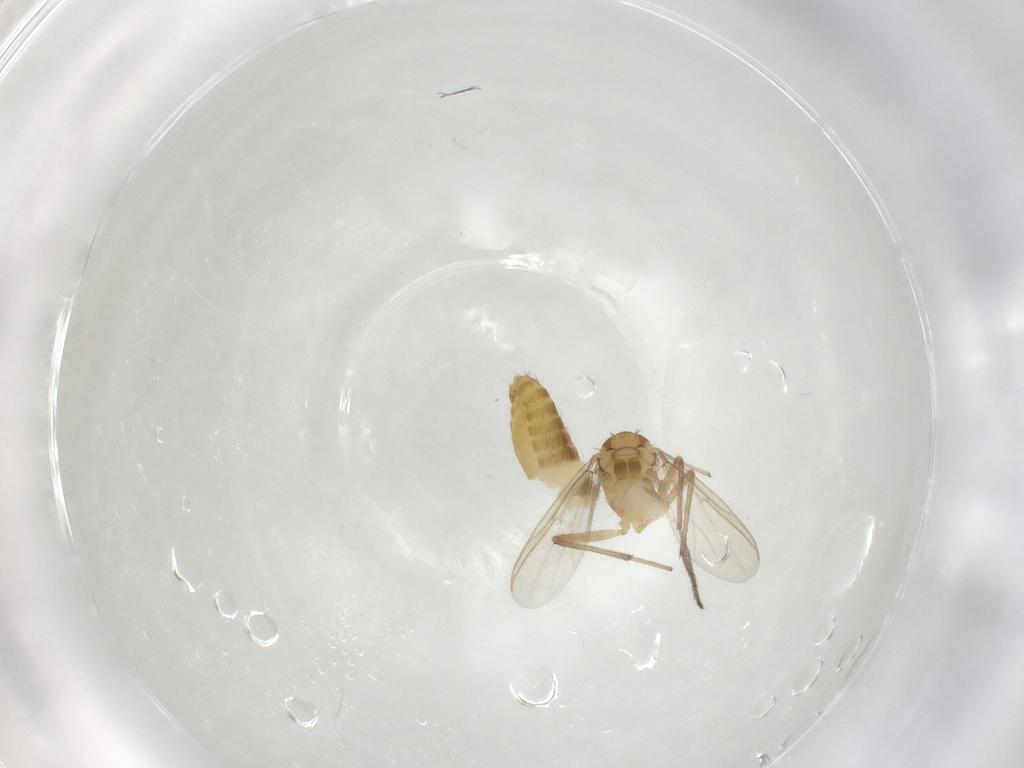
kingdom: Animalia
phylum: Arthropoda
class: Insecta
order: Diptera
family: Chironomidae
